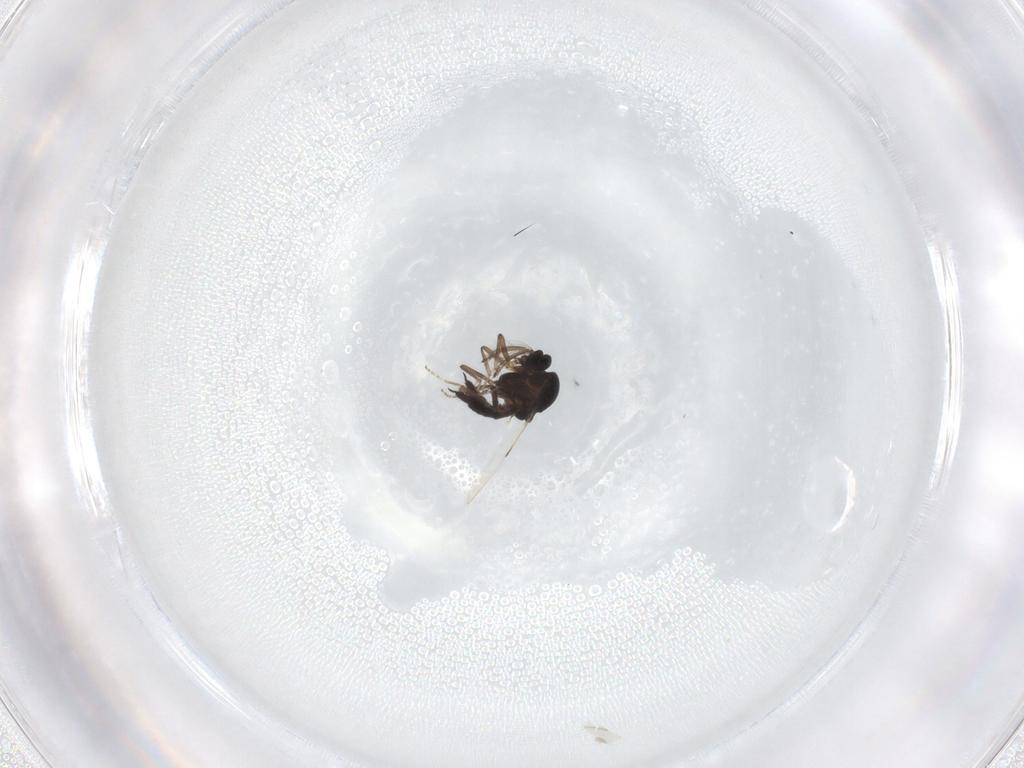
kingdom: Animalia
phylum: Arthropoda
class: Insecta
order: Diptera
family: Ceratopogonidae
